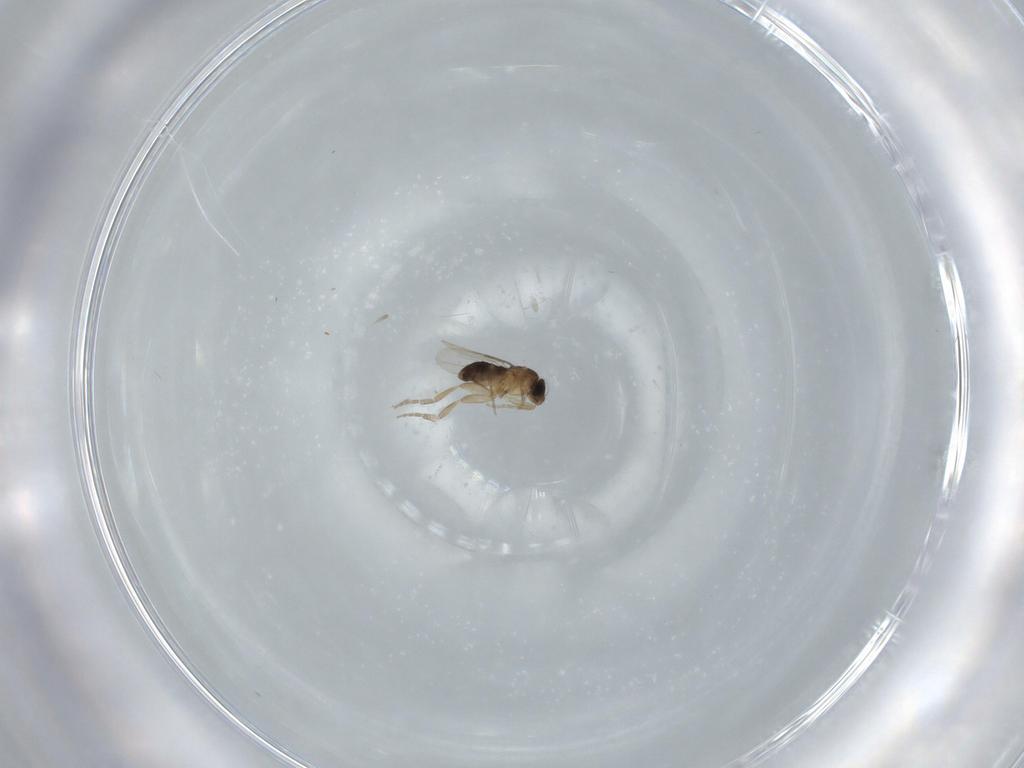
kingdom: Animalia
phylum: Arthropoda
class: Insecta
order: Diptera
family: Phoridae
